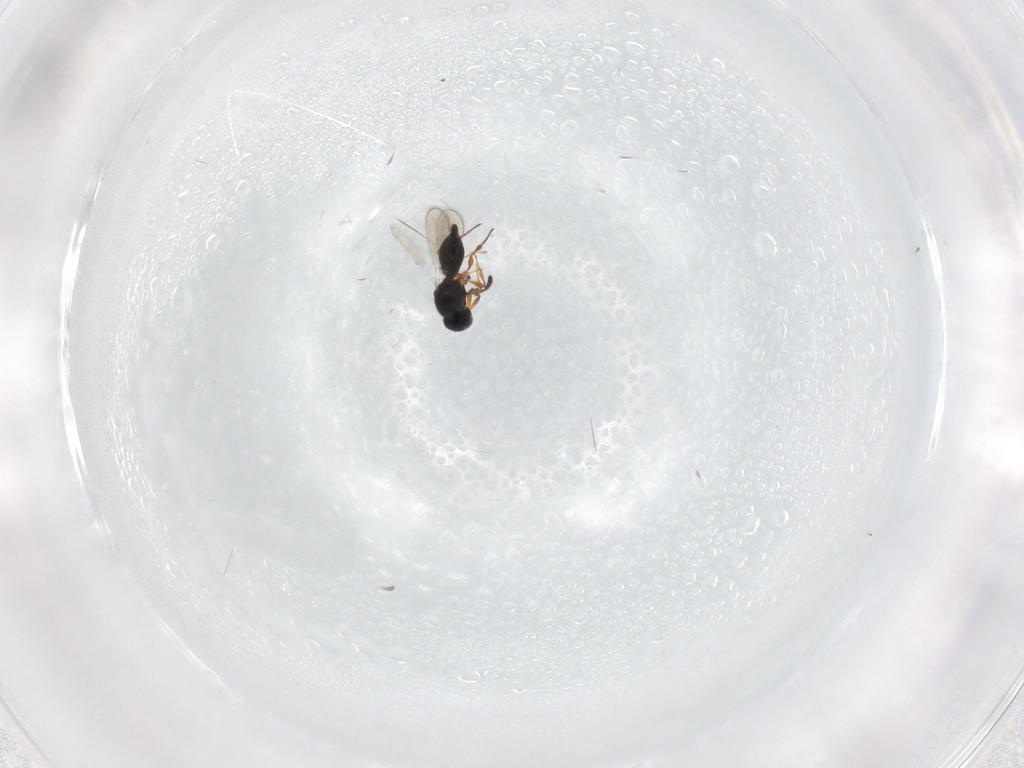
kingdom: Animalia
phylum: Arthropoda
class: Insecta
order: Hymenoptera
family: Platygastridae
